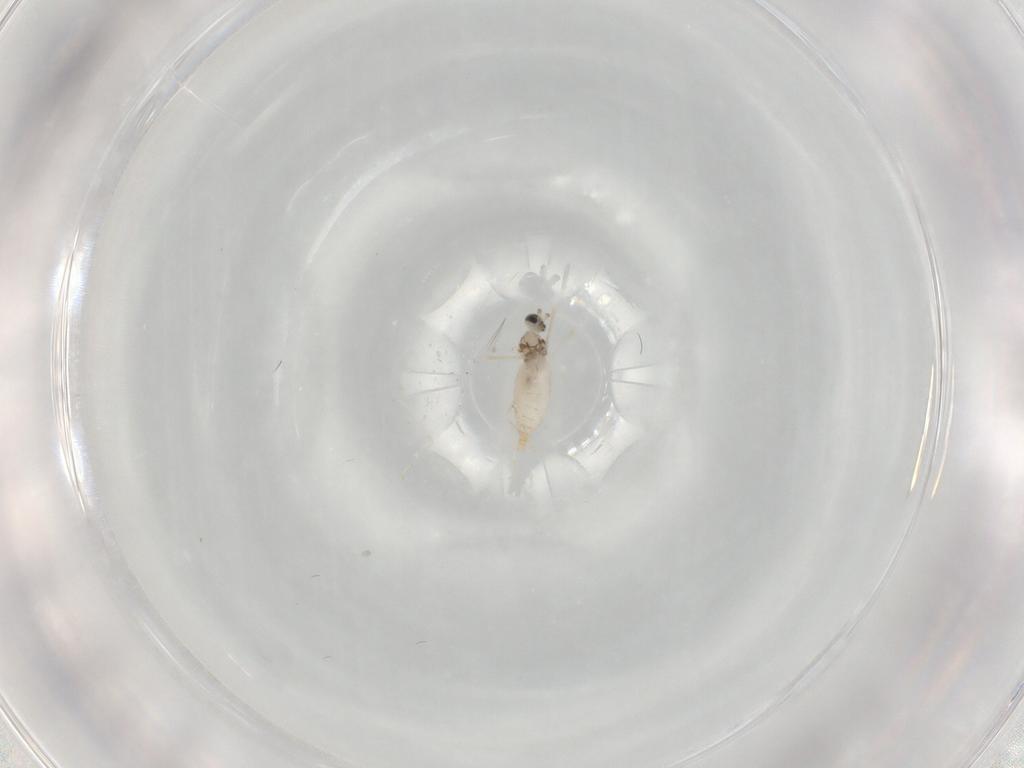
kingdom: Animalia
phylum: Arthropoda
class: Insecta
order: Diptera
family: Cecidomyiidae
